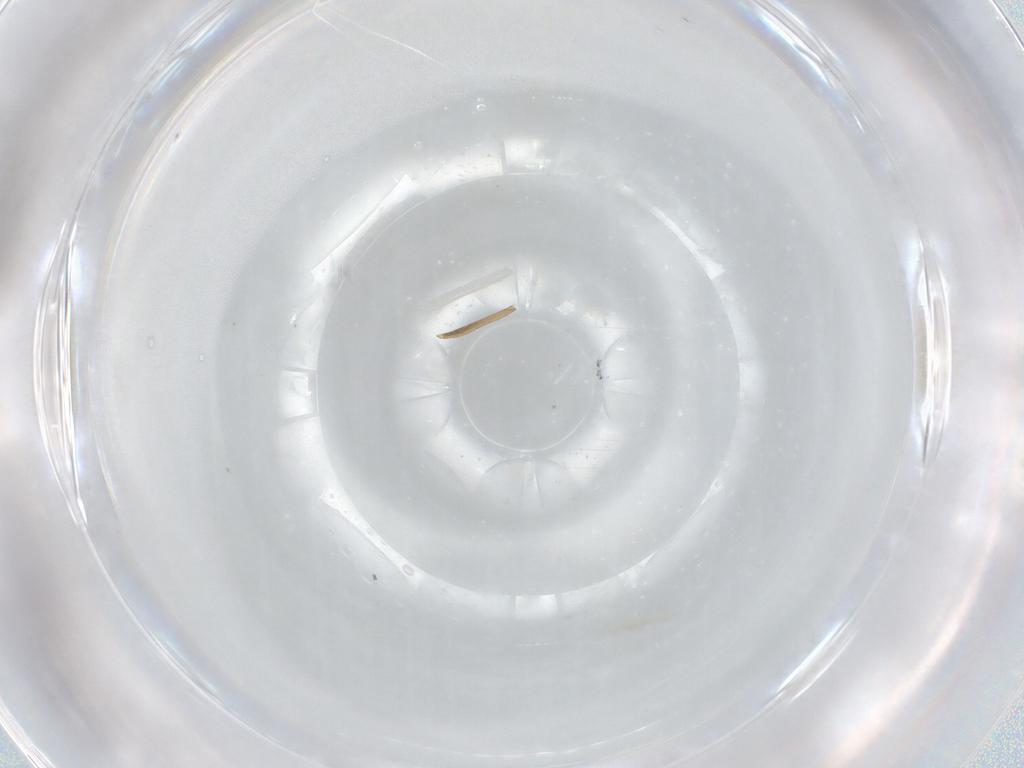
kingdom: Animalia
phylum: Arthropoda
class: Insecta
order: Diptera
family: Chironomidae
